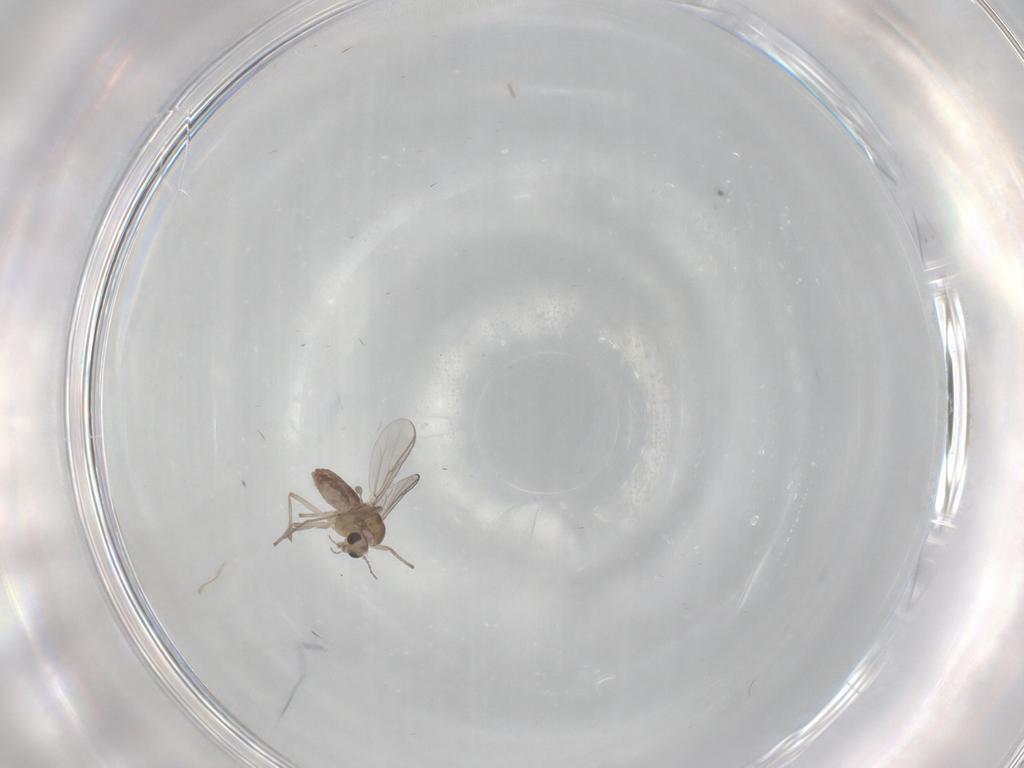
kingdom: Animalia
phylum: Arthropoda
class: Insecta
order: Diptera
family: Chironomidae
